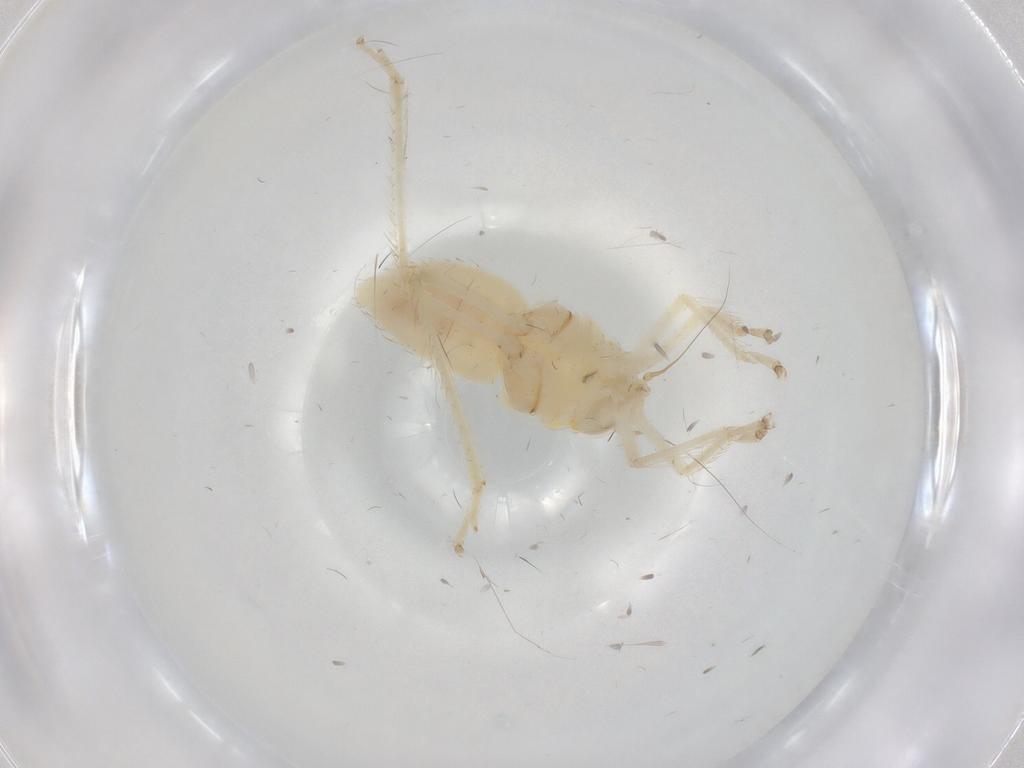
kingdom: Animalia
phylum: Arthropoda
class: Insecta
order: Hemiptera
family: Cicadellidae
